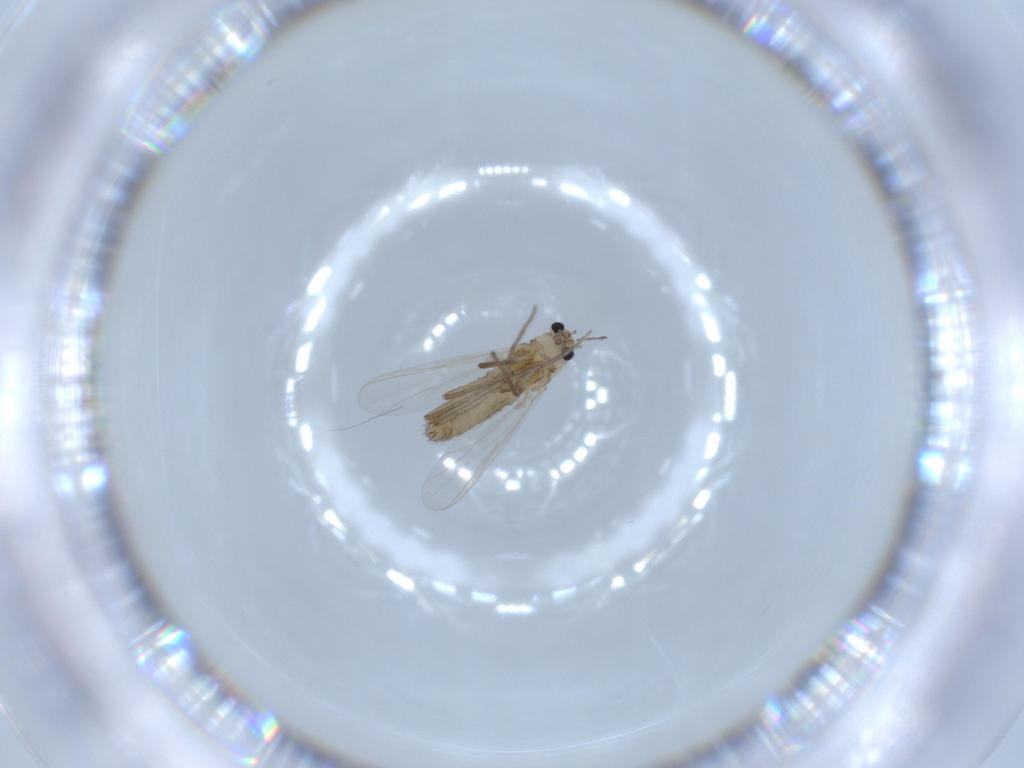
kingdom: Animalia
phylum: Arthropoda
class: Insecta
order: Diptera
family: Chironomidae
